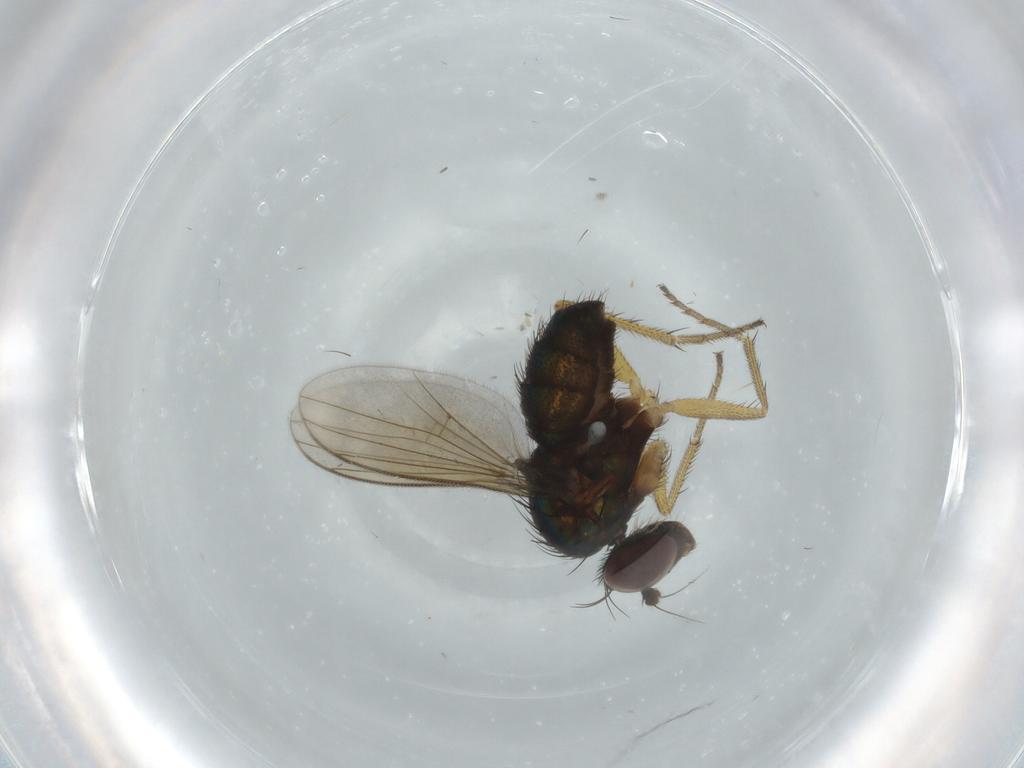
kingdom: Animalia
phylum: Arthropoda
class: Insecta
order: Diptera
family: Dolichopodidae
